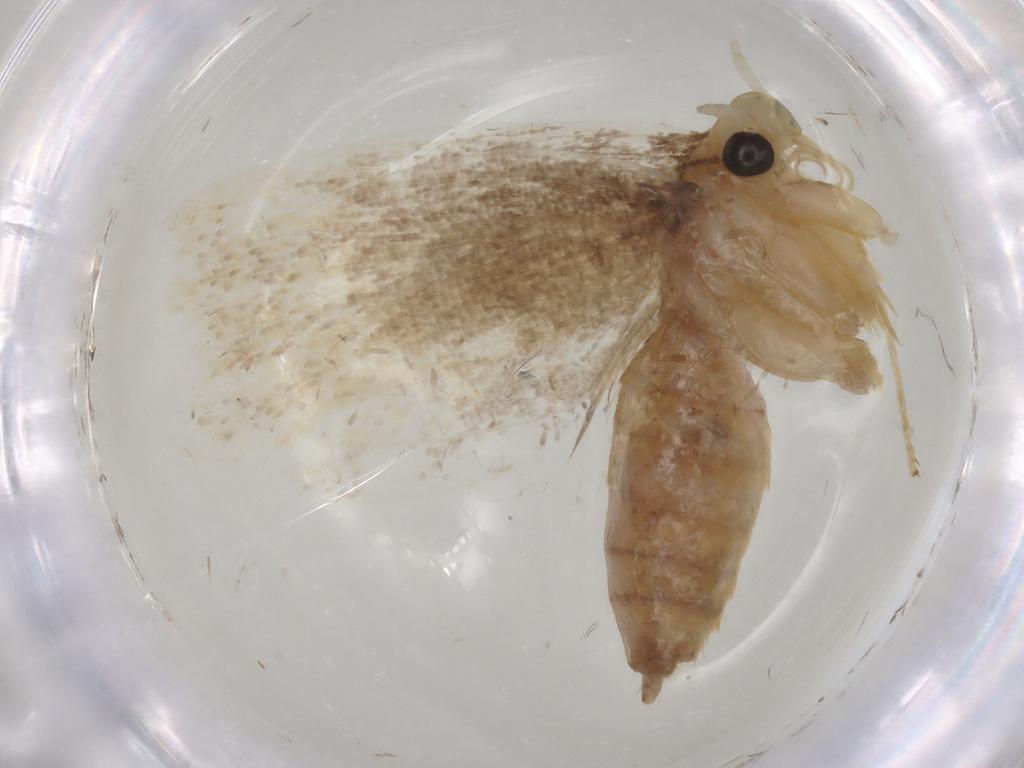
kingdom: Animalia
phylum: Arthropoda
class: Insecta
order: Lepidoptera
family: Lecithoceridae
